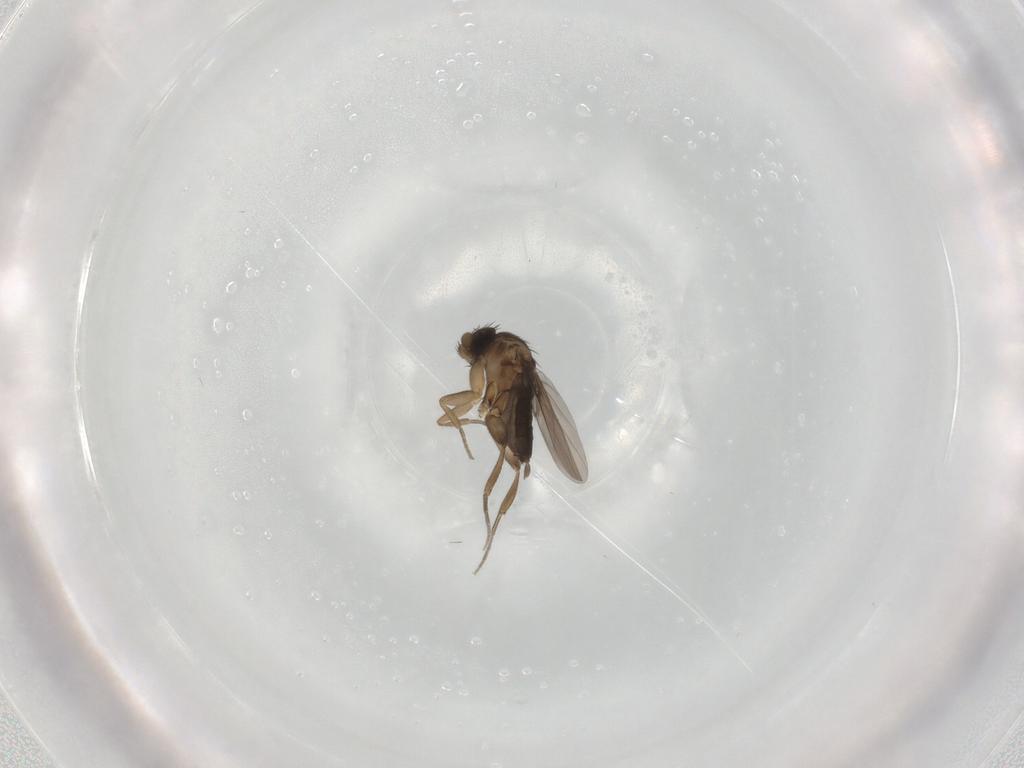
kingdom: Animalia
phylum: Arthropoda
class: Insecta
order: Diptera
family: Phoridae
